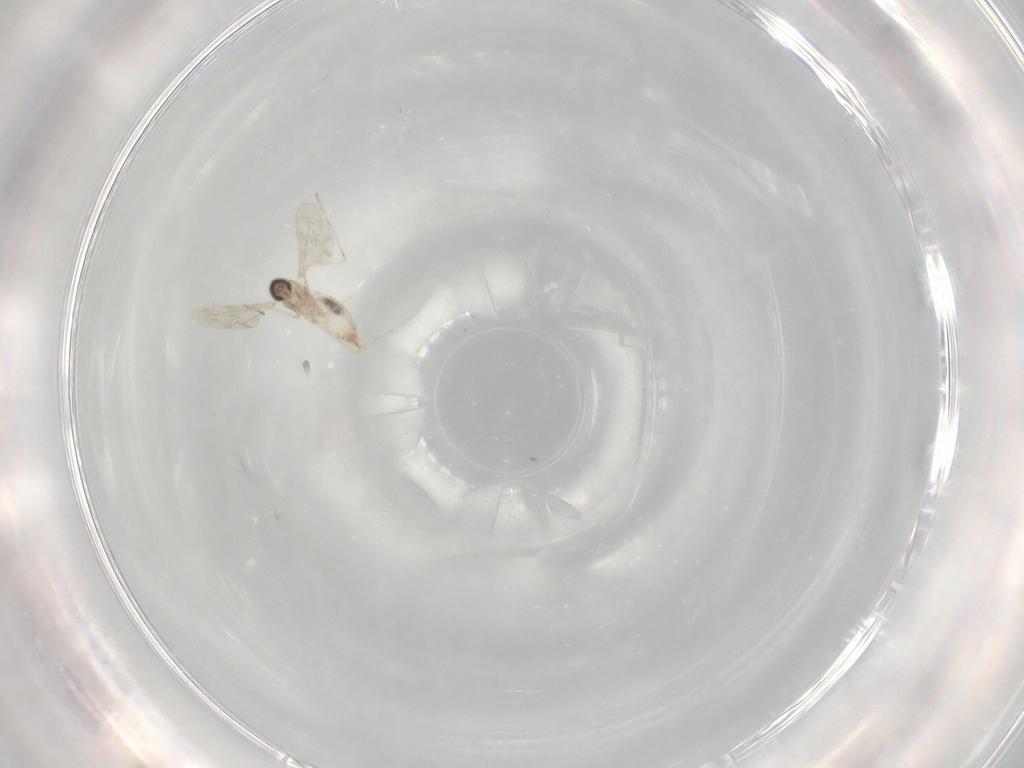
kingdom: Animalia
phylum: Arthropoda
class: Insecta
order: Diptera
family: Cecidomyiidae
